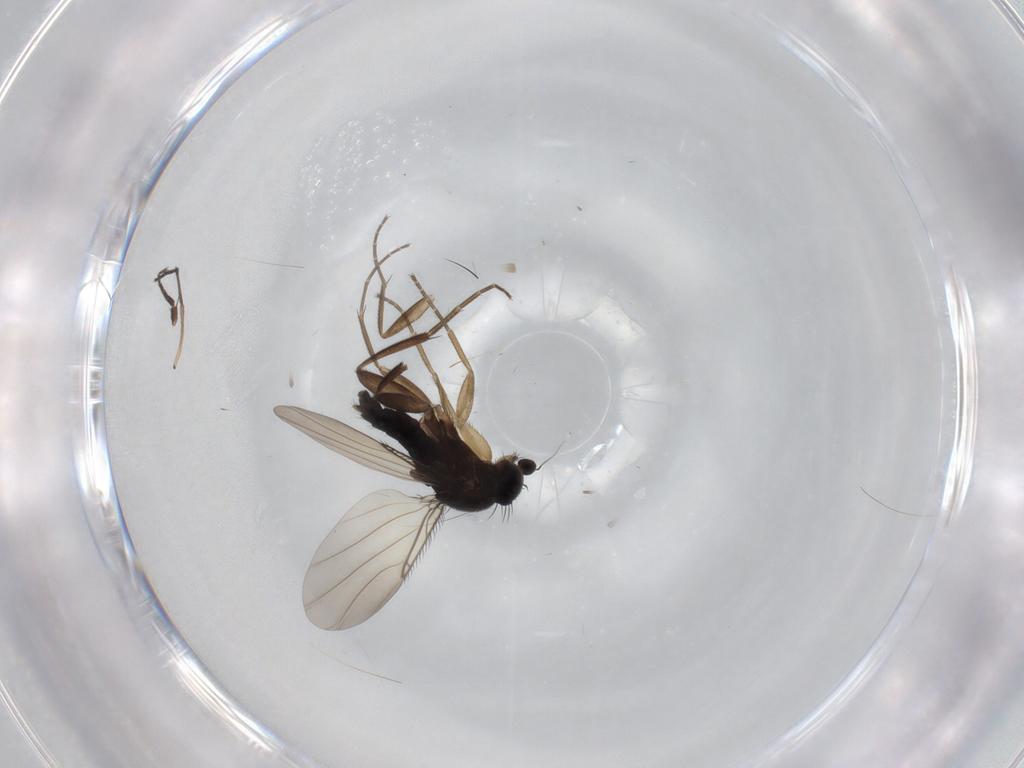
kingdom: Animalia
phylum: Arthropoda
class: Insecta
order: Diptera
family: Phoridae
